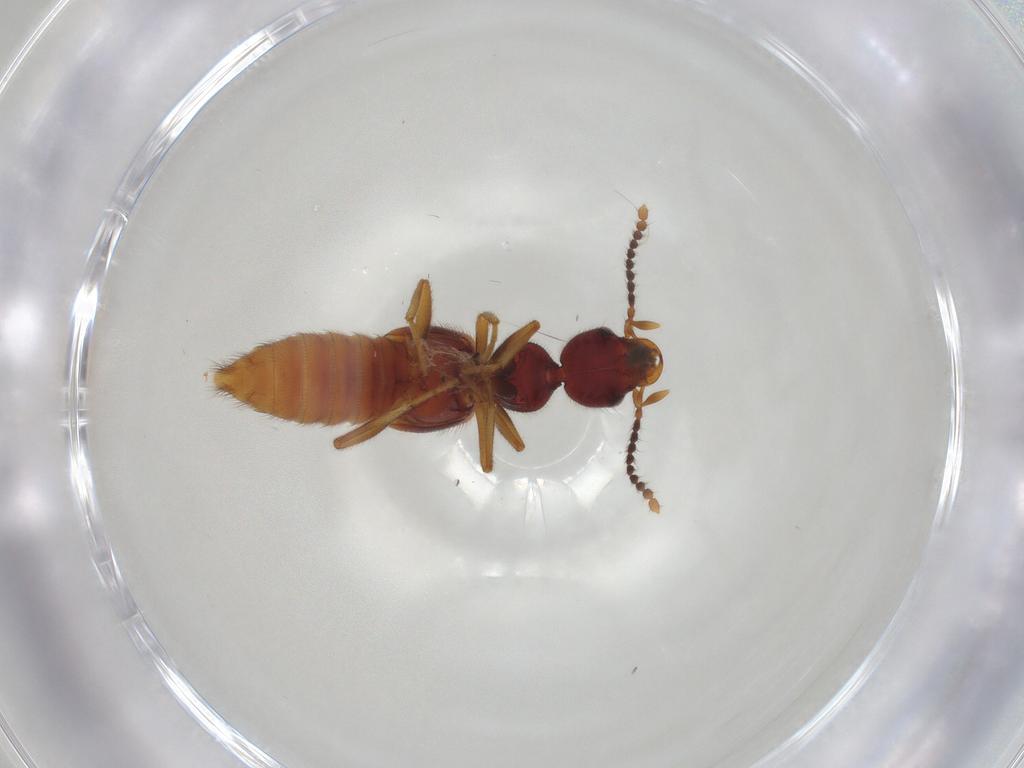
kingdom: Animalia
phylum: Arthropoda
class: Insecta
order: Coleoptera
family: Staphylinidae
